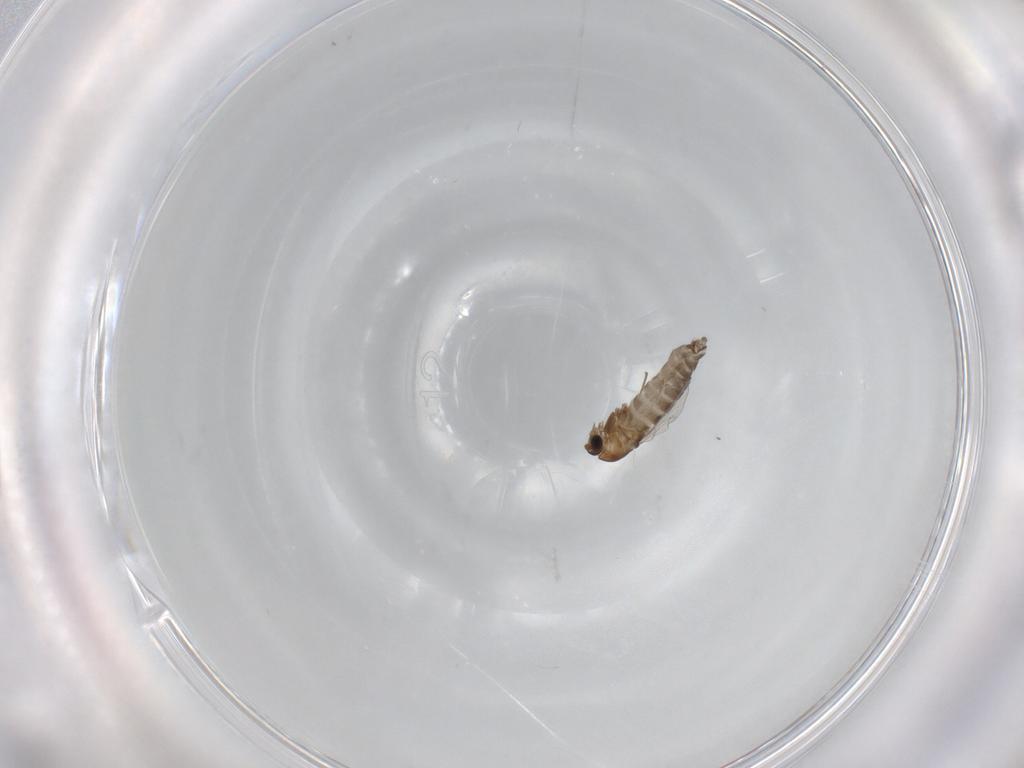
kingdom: Animalia
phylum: Arthropoda
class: Insecta
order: Diptera
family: Chironomidae
